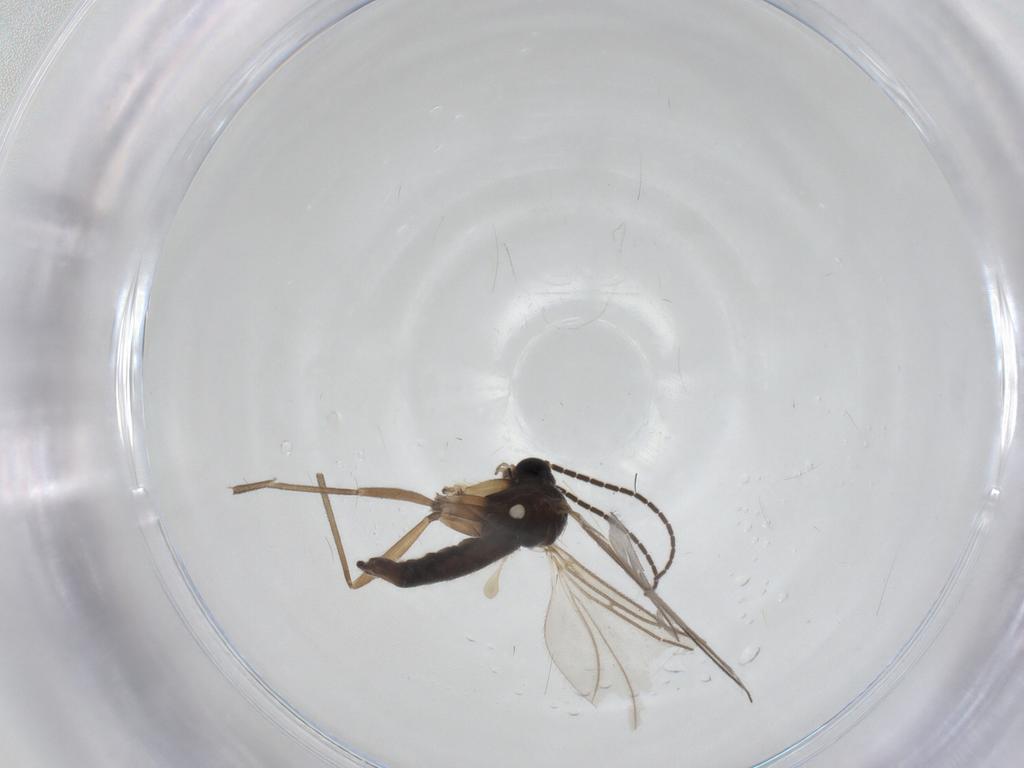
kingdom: Animalia
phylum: Arthropoda
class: Insecta
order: Diptera
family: Sciaridae
